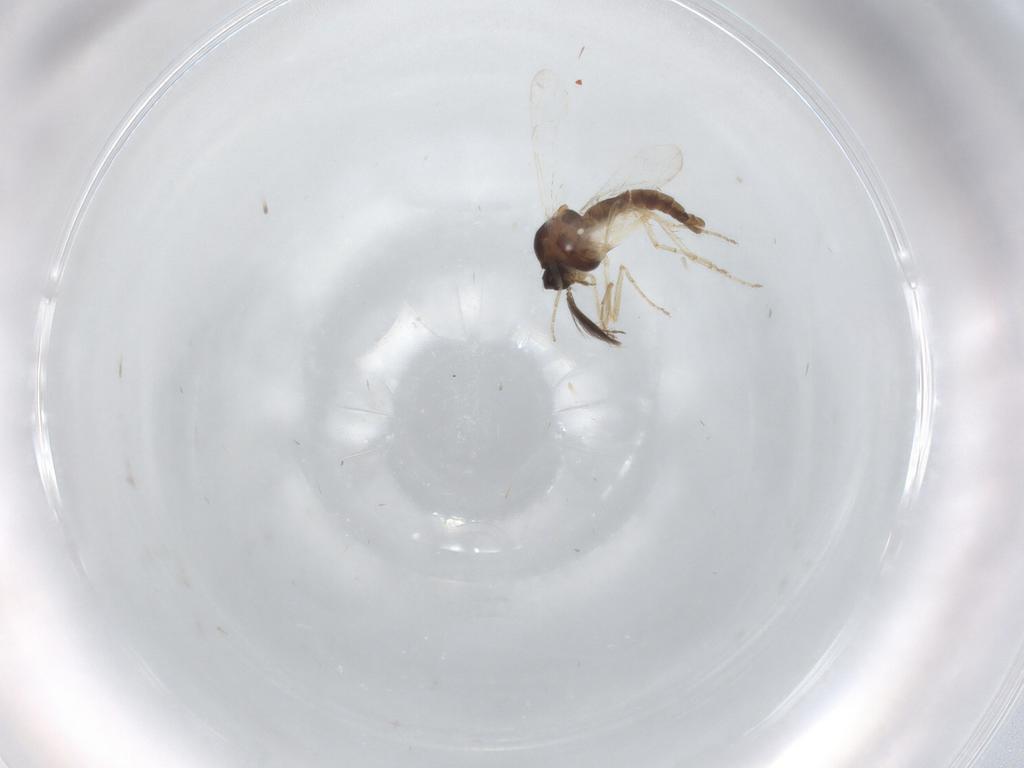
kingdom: Animalia
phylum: Arthropoda
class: Insecta
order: Diptera
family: Ceratopogonidae
